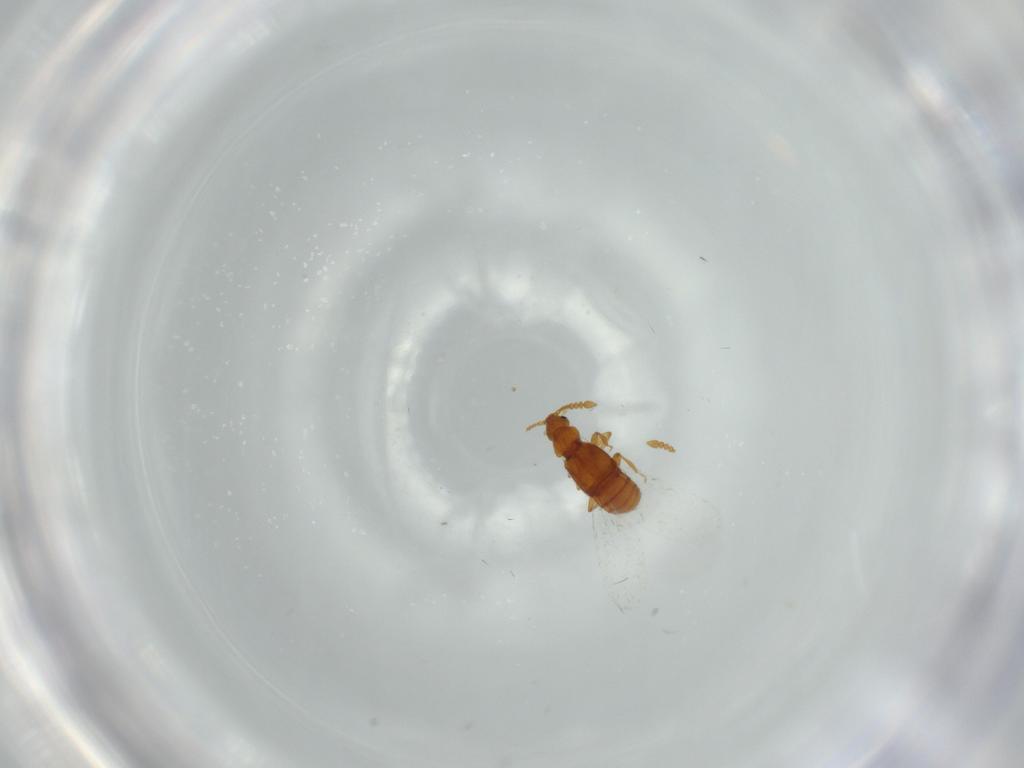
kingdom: Animalia
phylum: Arthropoda
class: Insecta
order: Coleoptera
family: Staphylinidae
